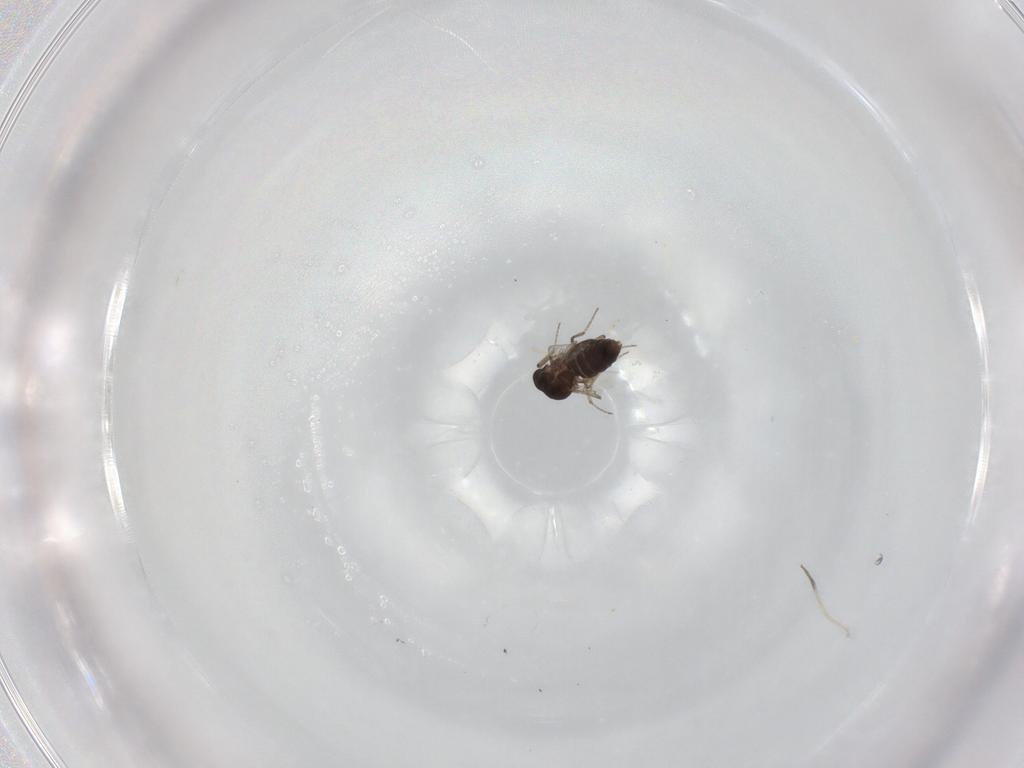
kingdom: Animalia
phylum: Arthropoda
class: Insecta
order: Diptera
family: Ceratopogonidae
